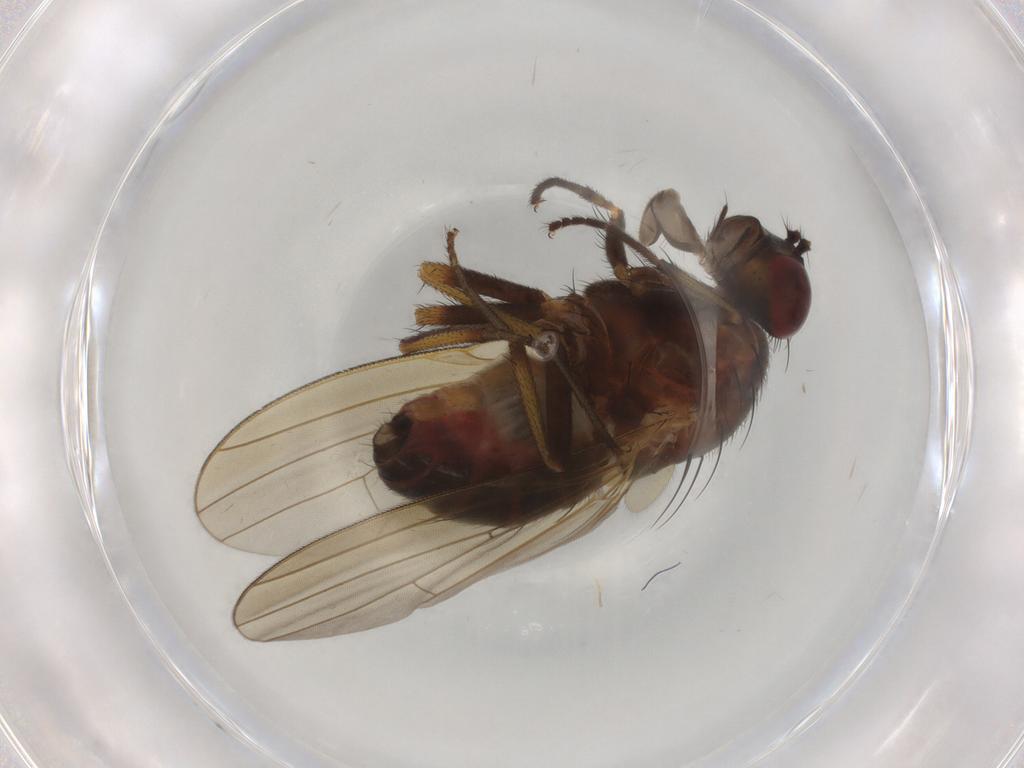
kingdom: Animalia
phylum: Arthropoda
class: Insecta
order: Diptera
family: Lauxaniidae
